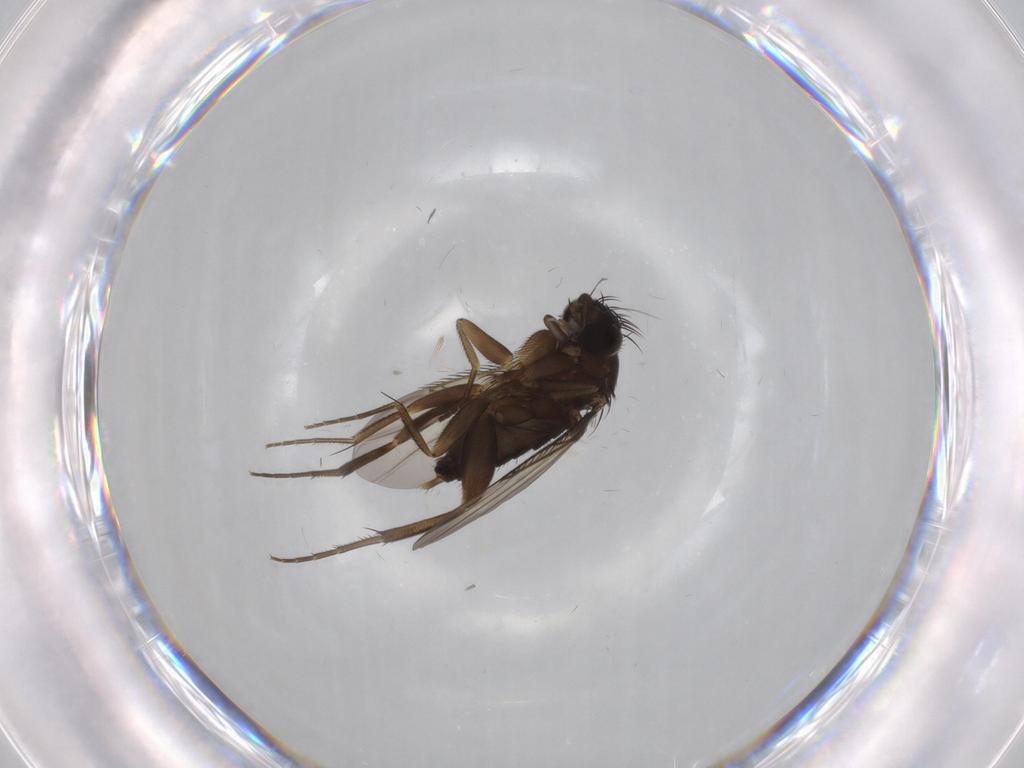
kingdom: Animalia
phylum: Arthropoda
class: Insecta
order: Diptera
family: Phoridae
